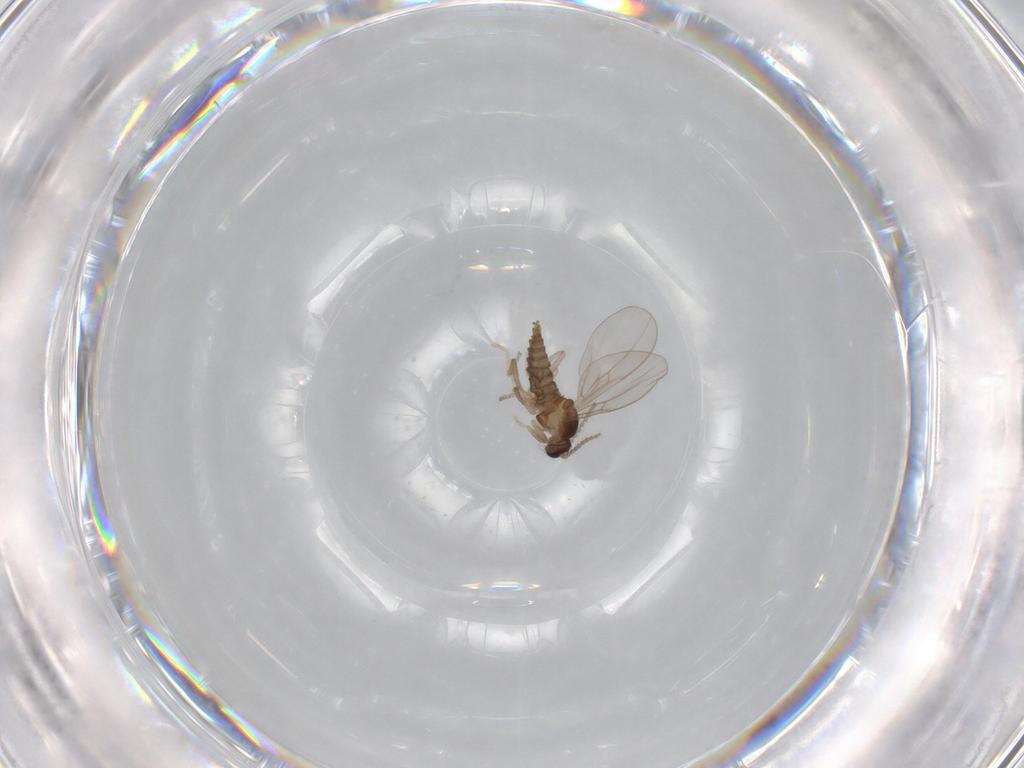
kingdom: Animalia
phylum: Arthropoda
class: Insecta
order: Diptera
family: Cecidomyiidae
